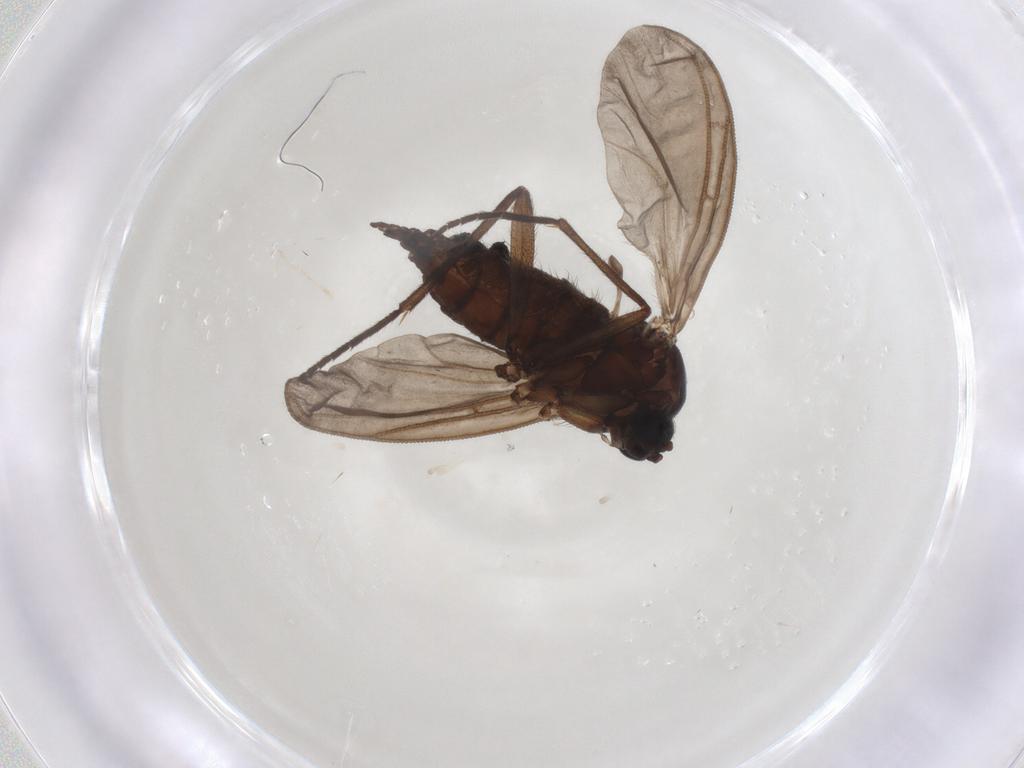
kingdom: Animalia
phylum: Arthropoda
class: Insecta
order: Diptera
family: Sciaridae
